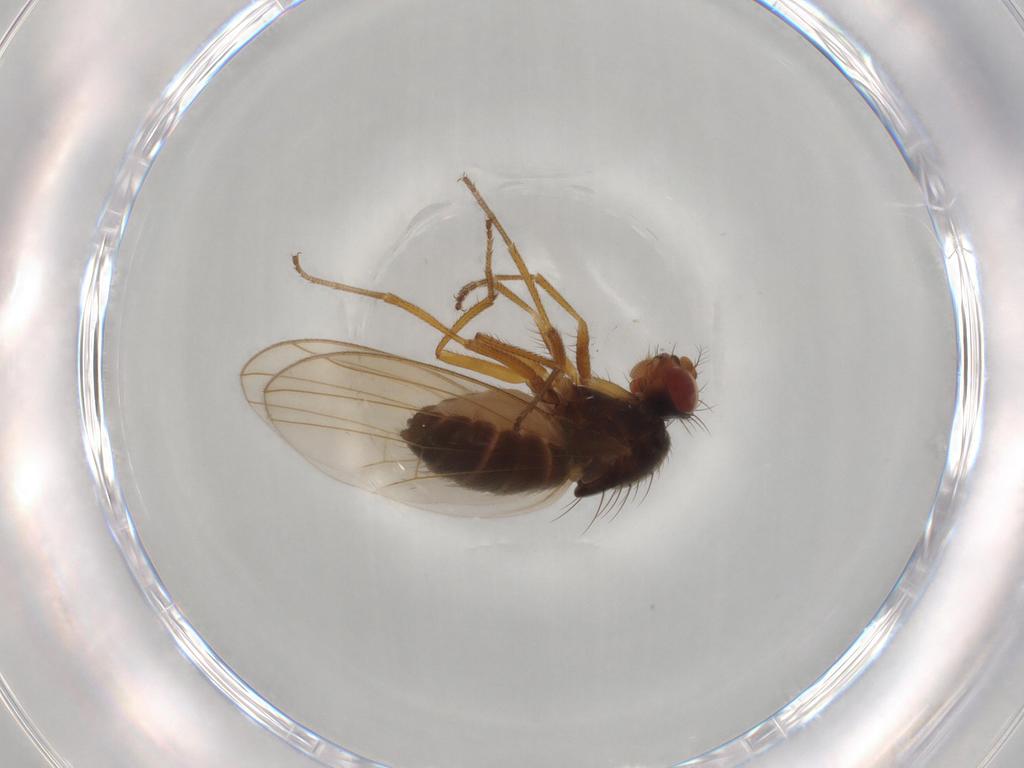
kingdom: Animalia
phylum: Arthropoda
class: Insecta
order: Diptera
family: Drosophilidae
